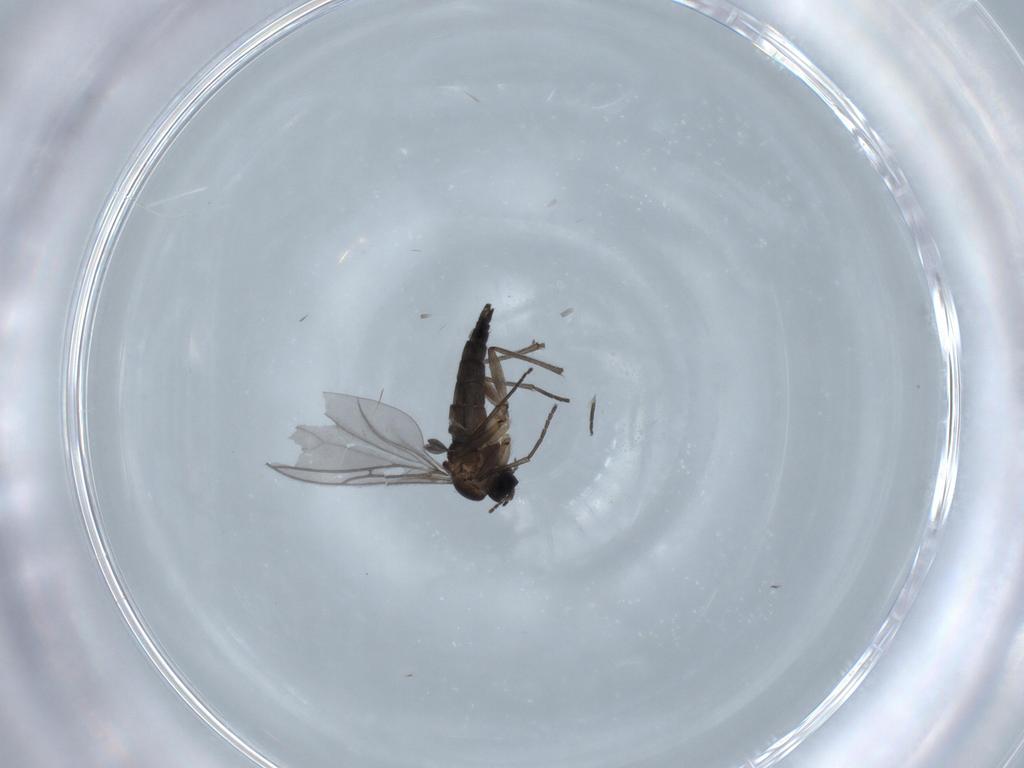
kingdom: Animalia
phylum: Arthropoda
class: Insecta
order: Diptera
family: Sciaridae
